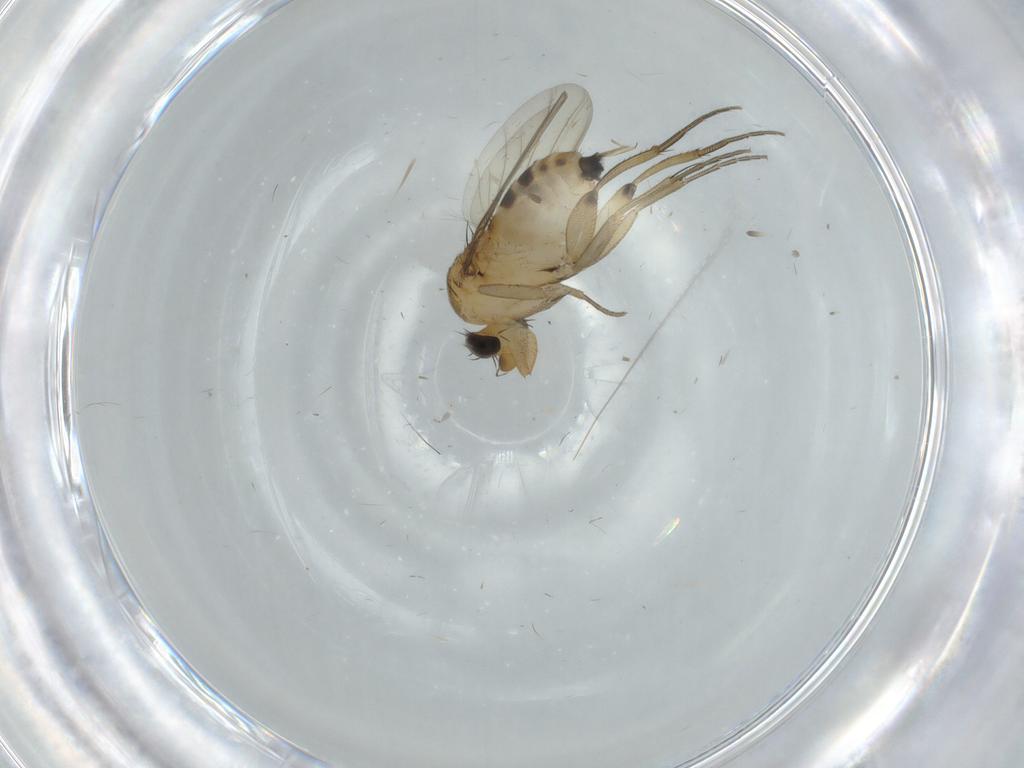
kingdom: Animalia
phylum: Arthropoda
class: Insecta
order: Diptera
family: Phoridae
